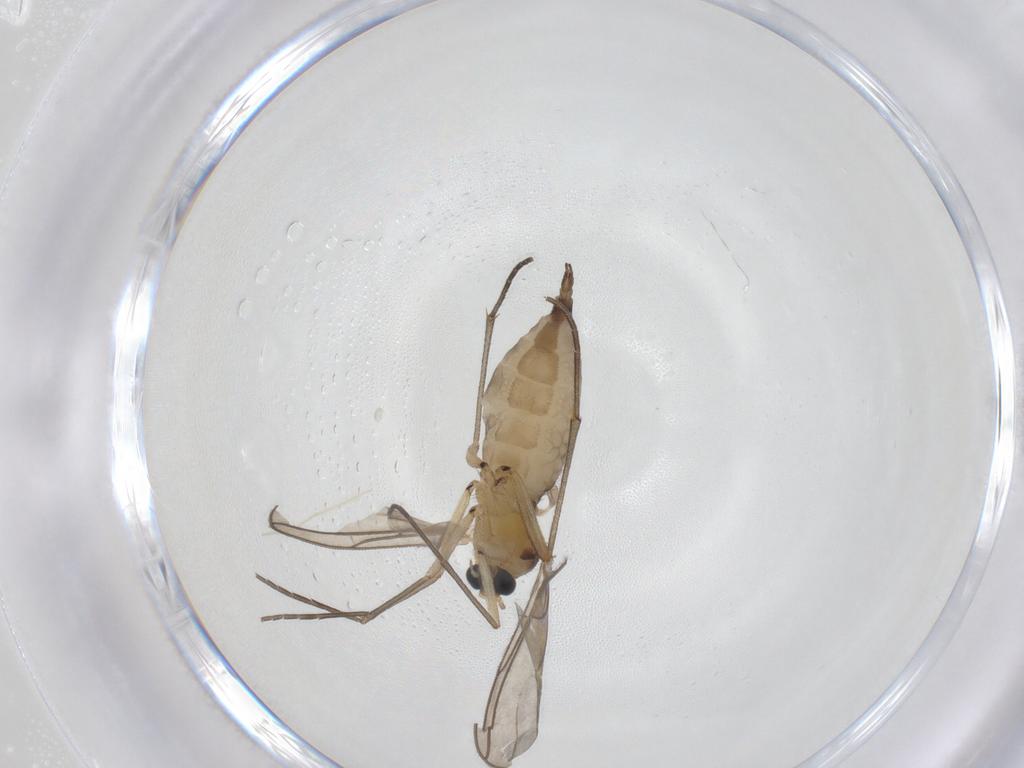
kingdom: Animalia
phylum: Arthropoda
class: Insecta
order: Diptera
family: Sciaridae
